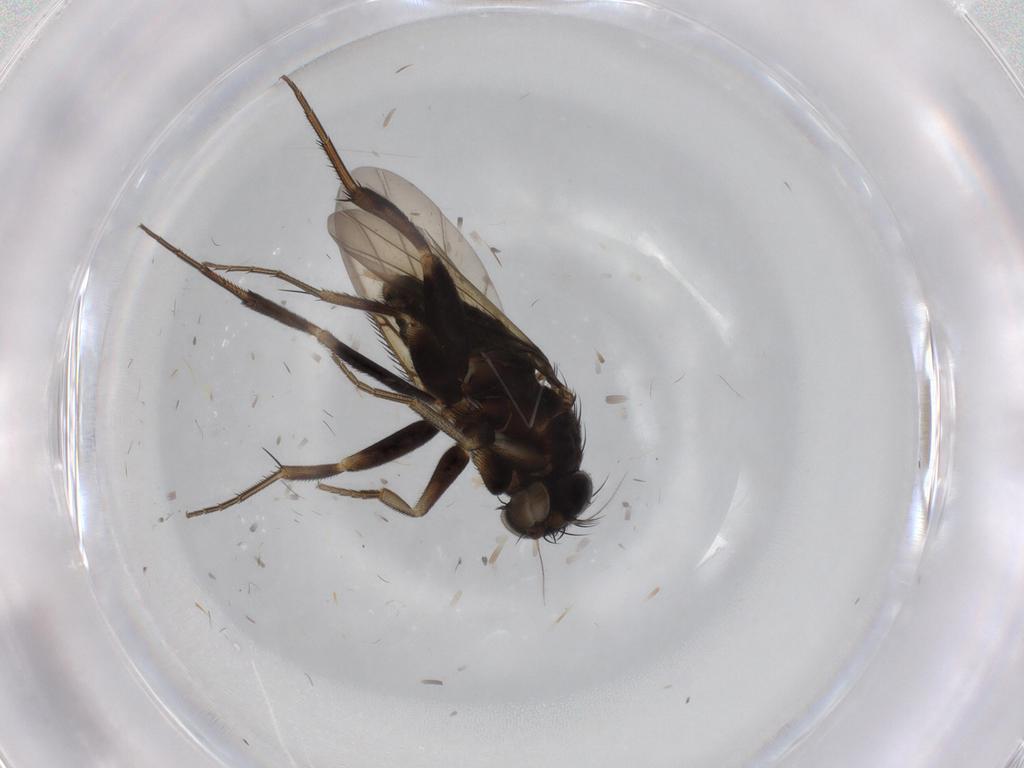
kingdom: Animalia
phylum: Arthropoda
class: Insecta
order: Diptera
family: Phoridae
